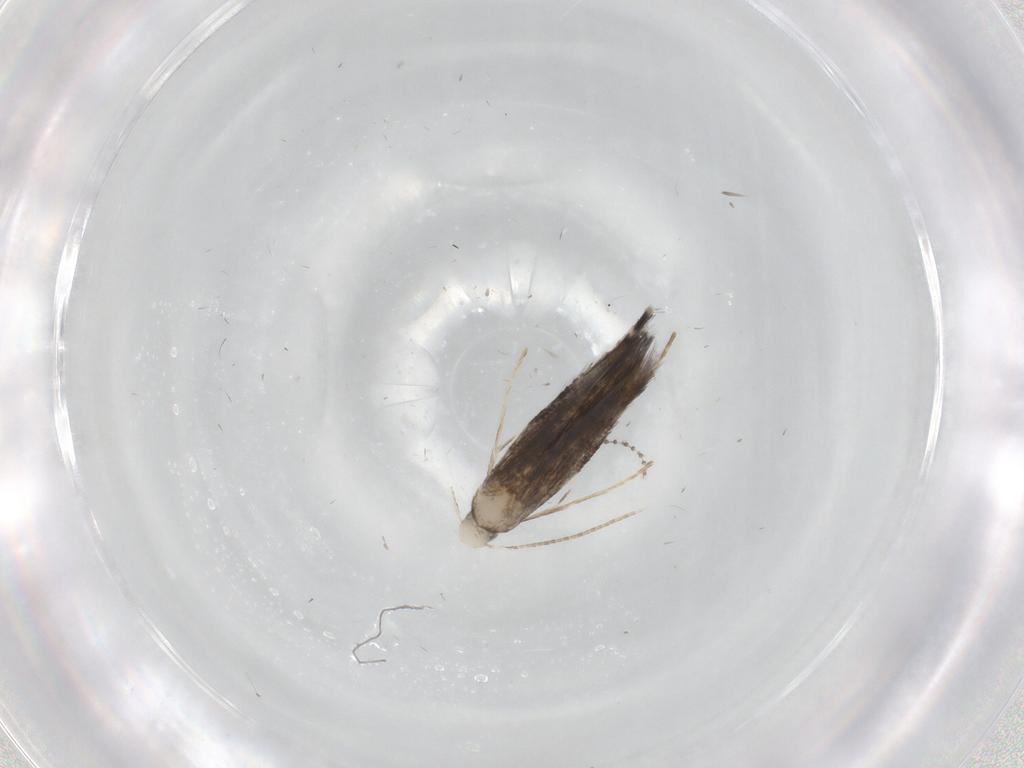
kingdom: Animalia
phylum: Arthropoda
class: Insecta
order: Lepidoptera
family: Nepticulidae
